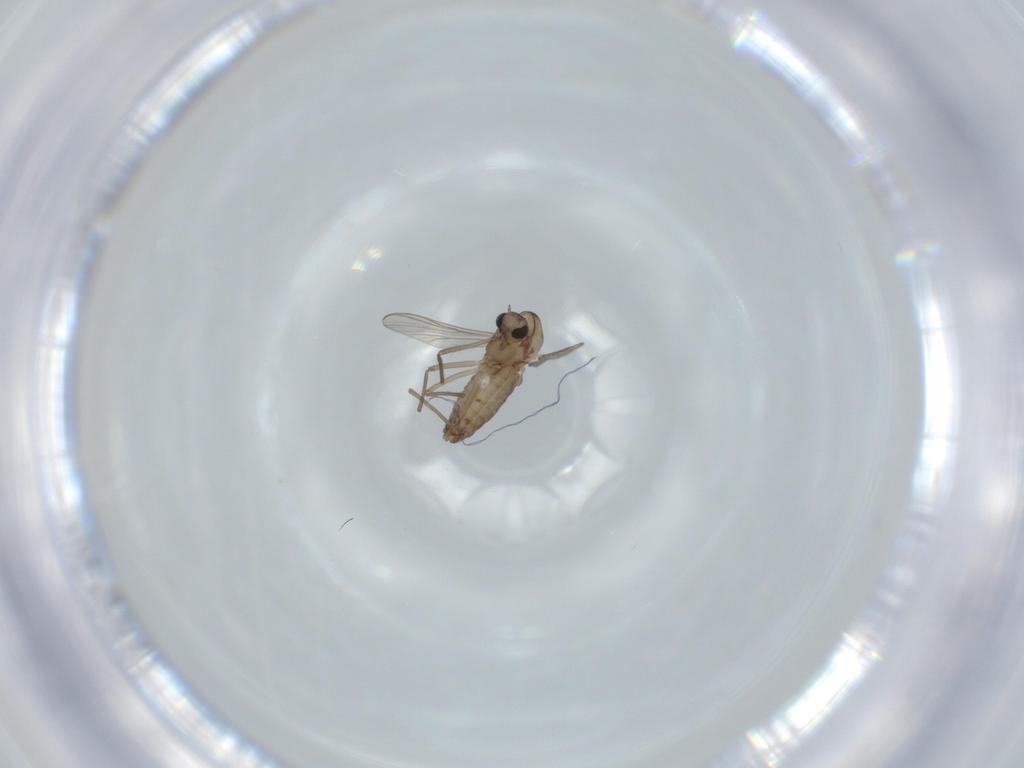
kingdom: Animalia
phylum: Arthropoda
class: Insecta
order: Diptera
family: Chironomidae
